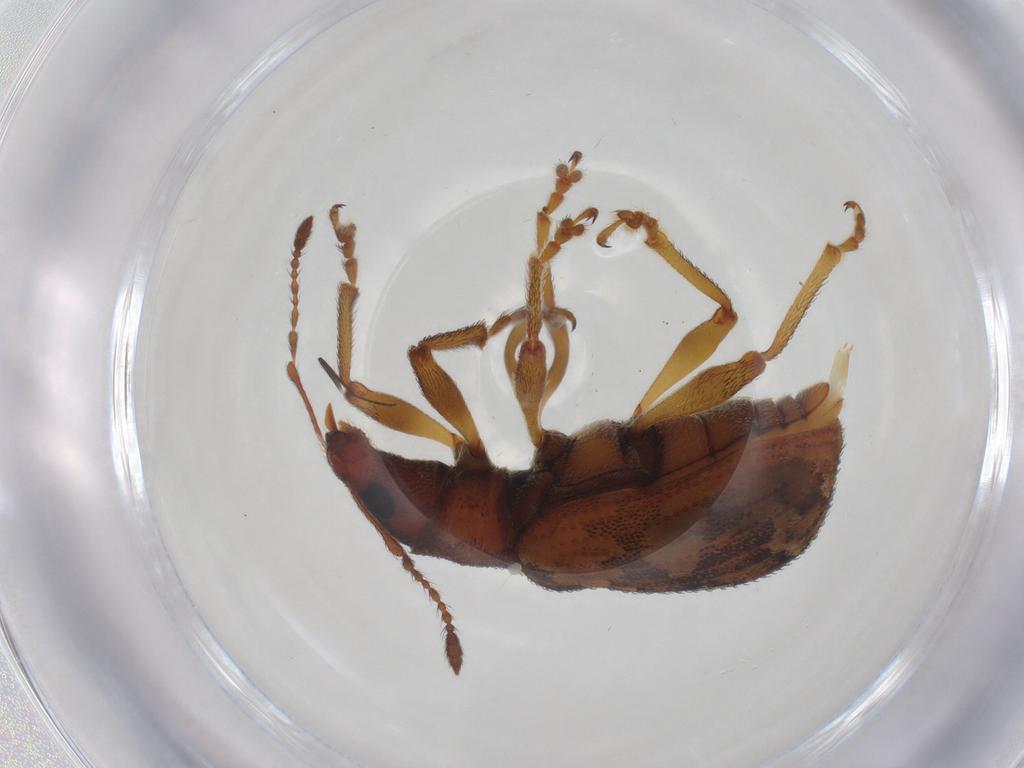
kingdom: Animalia
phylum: Arthropoda
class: Insecta
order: Coleoptera
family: Curculionidae
